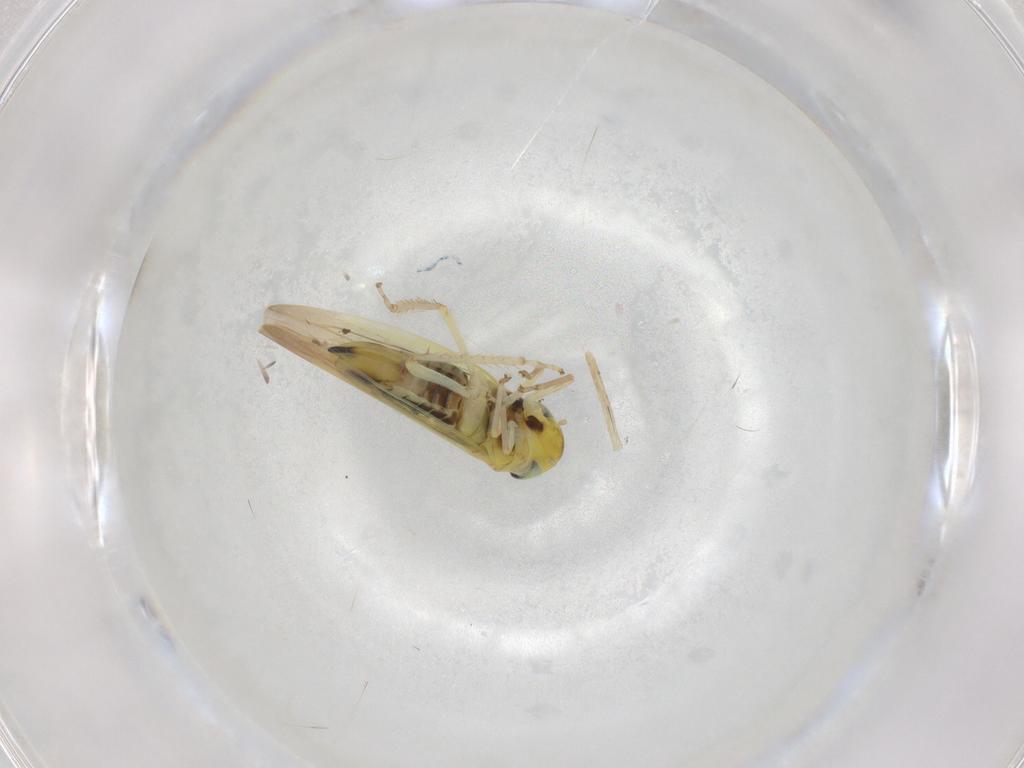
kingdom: Animalia
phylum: Arthropoda
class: Insecta
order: Hemiptera
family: Cicadellidae
